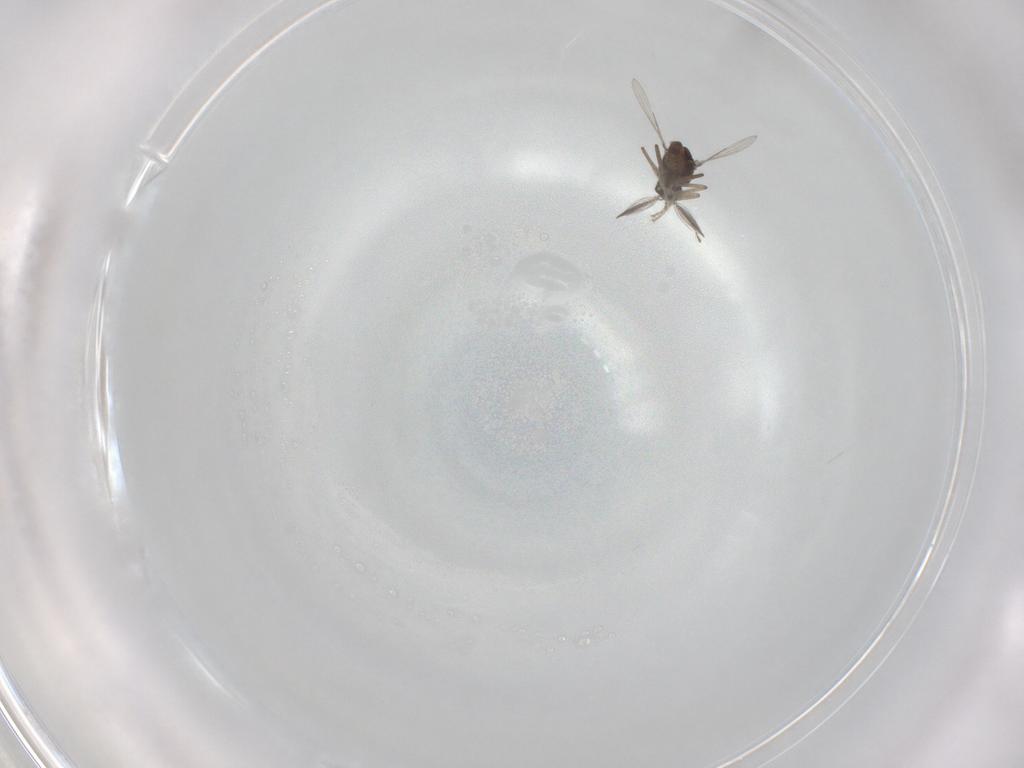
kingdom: Animalia
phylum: Arthropoda
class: Insecta
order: Diptera
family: Ceratopogonidae
